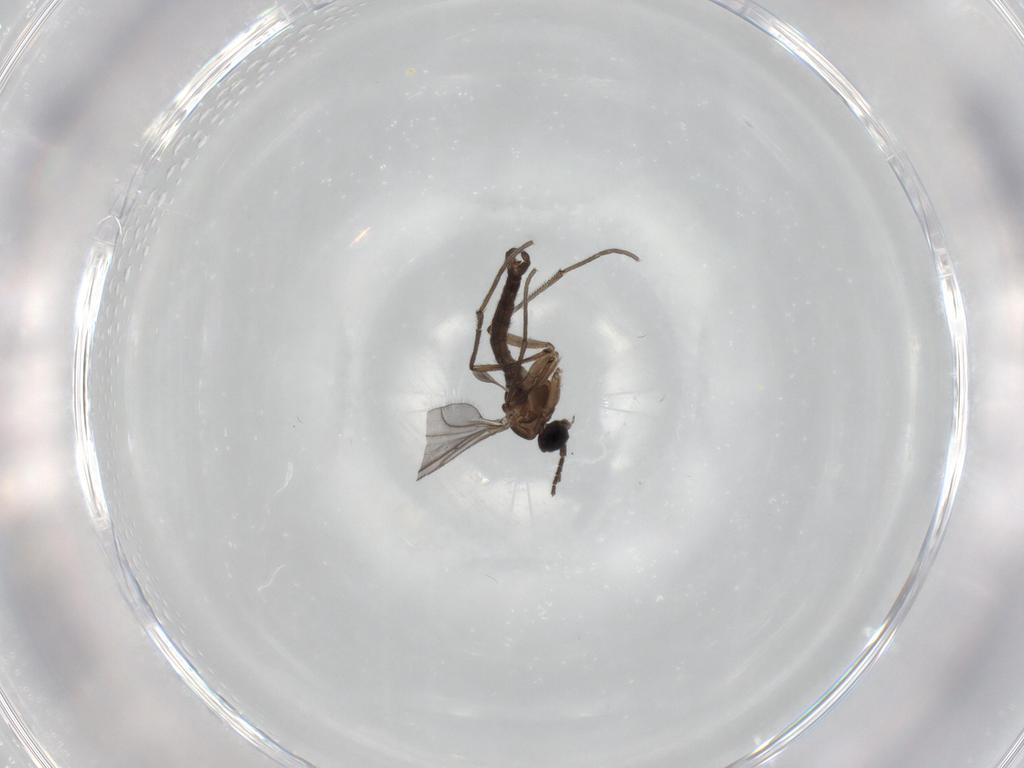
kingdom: Animalia
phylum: Arthropoda
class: Insecta
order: Diptera
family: Sciaridae
